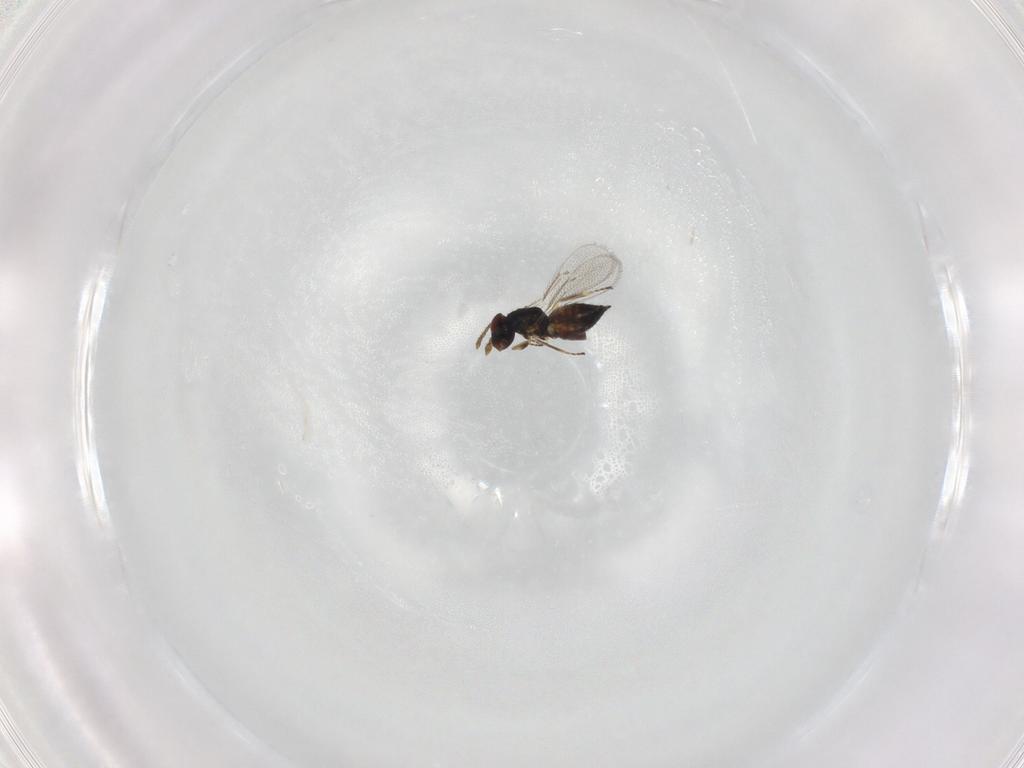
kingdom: Animalia
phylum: Arthropoda
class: Insecta
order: Hymenoptera
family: Eulophidae
